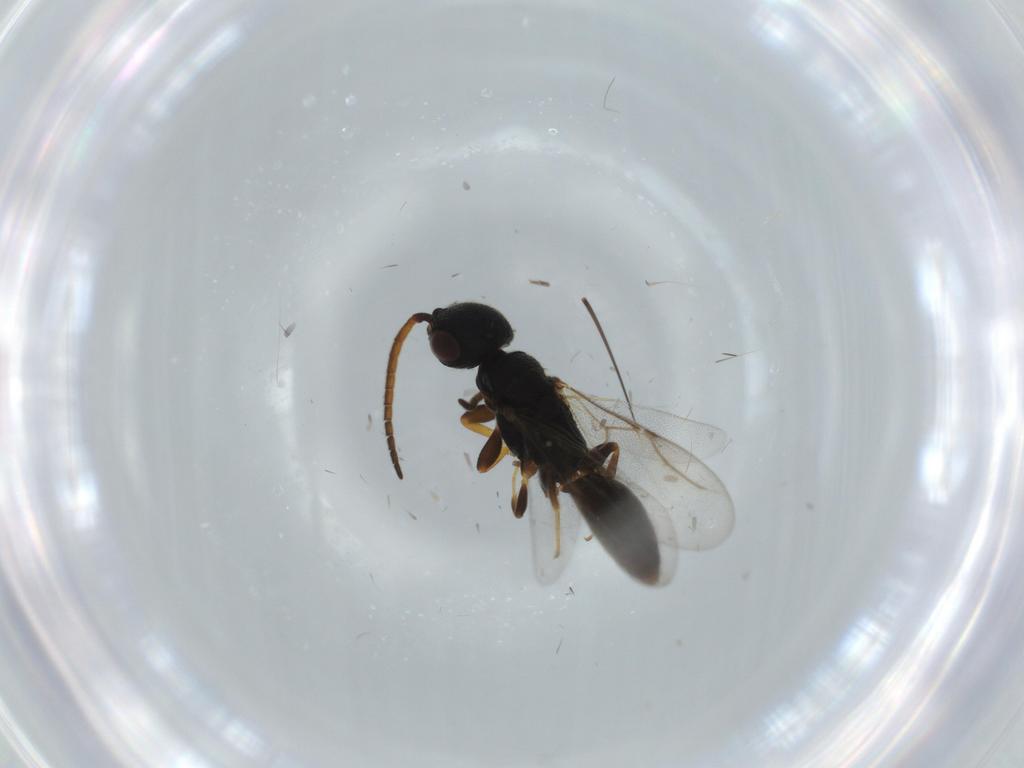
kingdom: Animalia
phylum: Arthropoda
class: Insecta
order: Hymenoptera
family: Bethylidae
